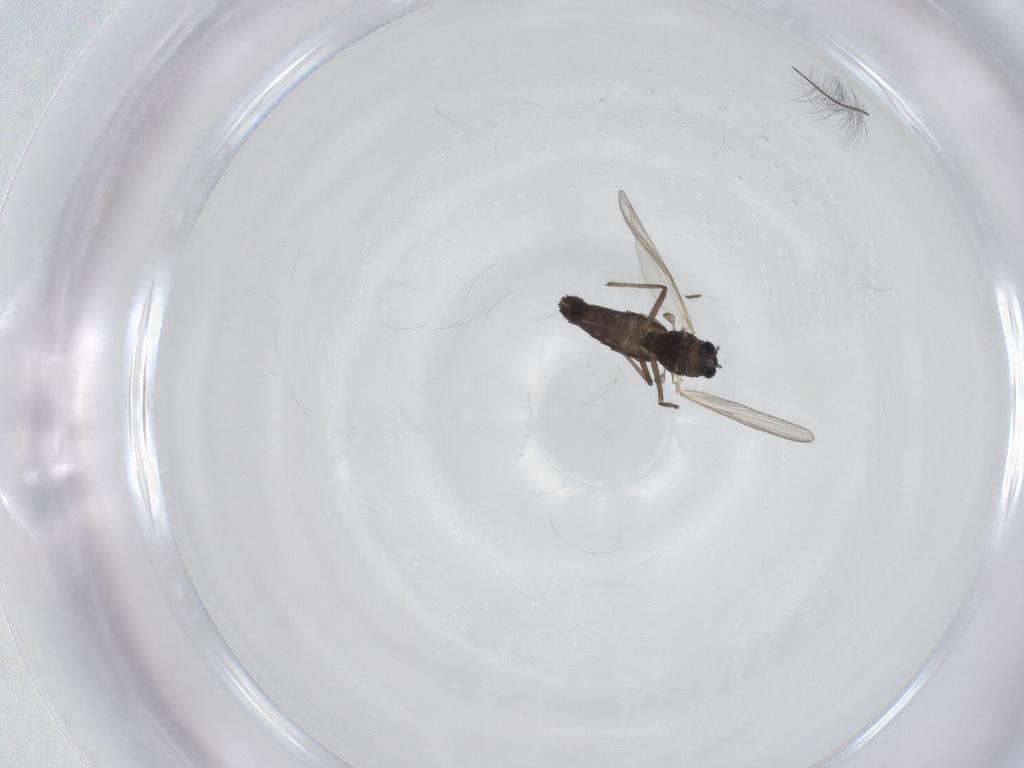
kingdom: Animalia
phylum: Arthropoda
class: Insecta
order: Diptera
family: Chironomidae
